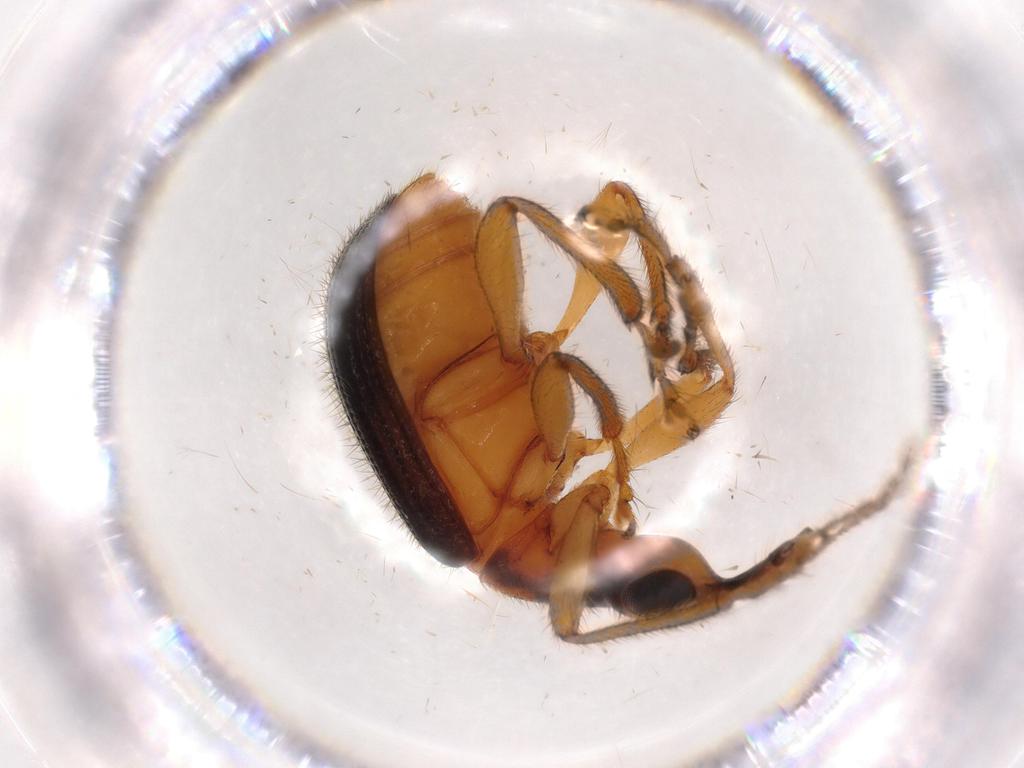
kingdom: Animalia
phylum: Arthropoda
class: Insecta
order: Coleoptera
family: Attelabidae
